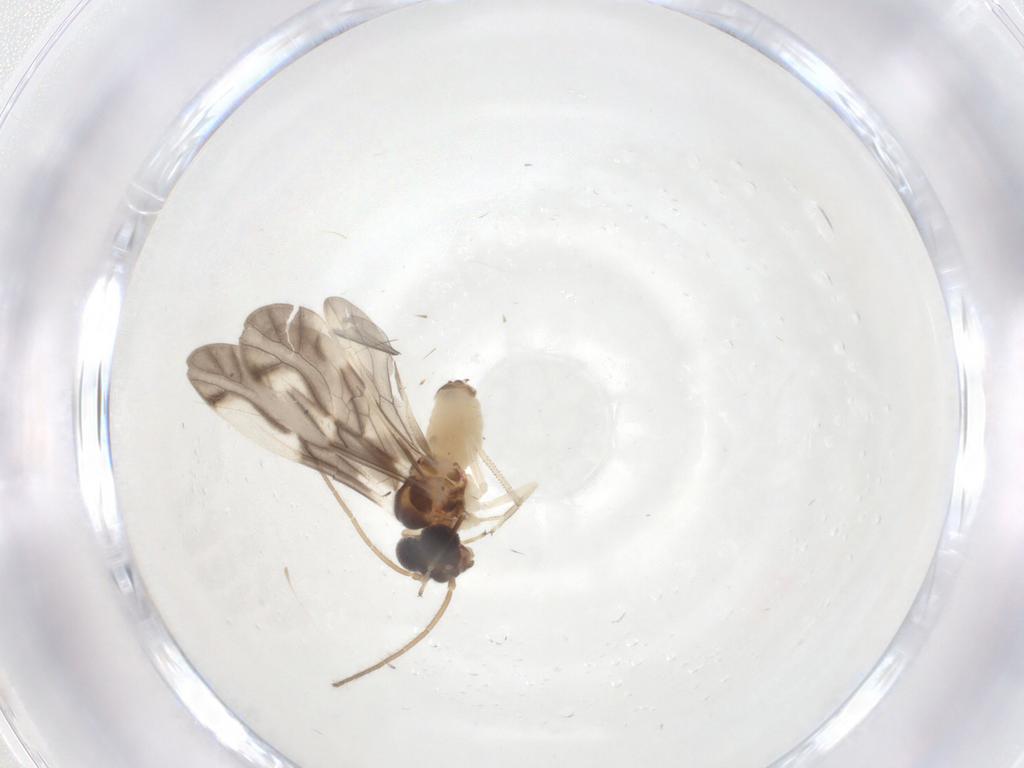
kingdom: Animalia
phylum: Arthropoda
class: Insecta
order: Psocodea
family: Caeciliusidae
